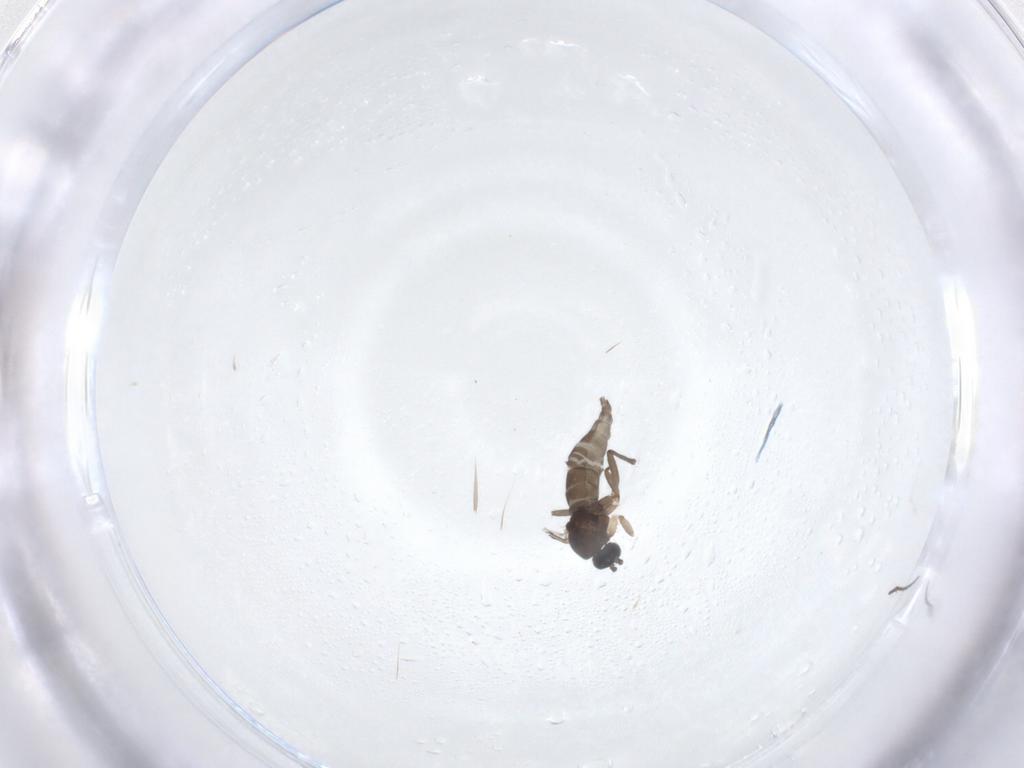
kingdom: Animalia
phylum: Arthropoda
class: Insecta
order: Diptera
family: Sciaridae
